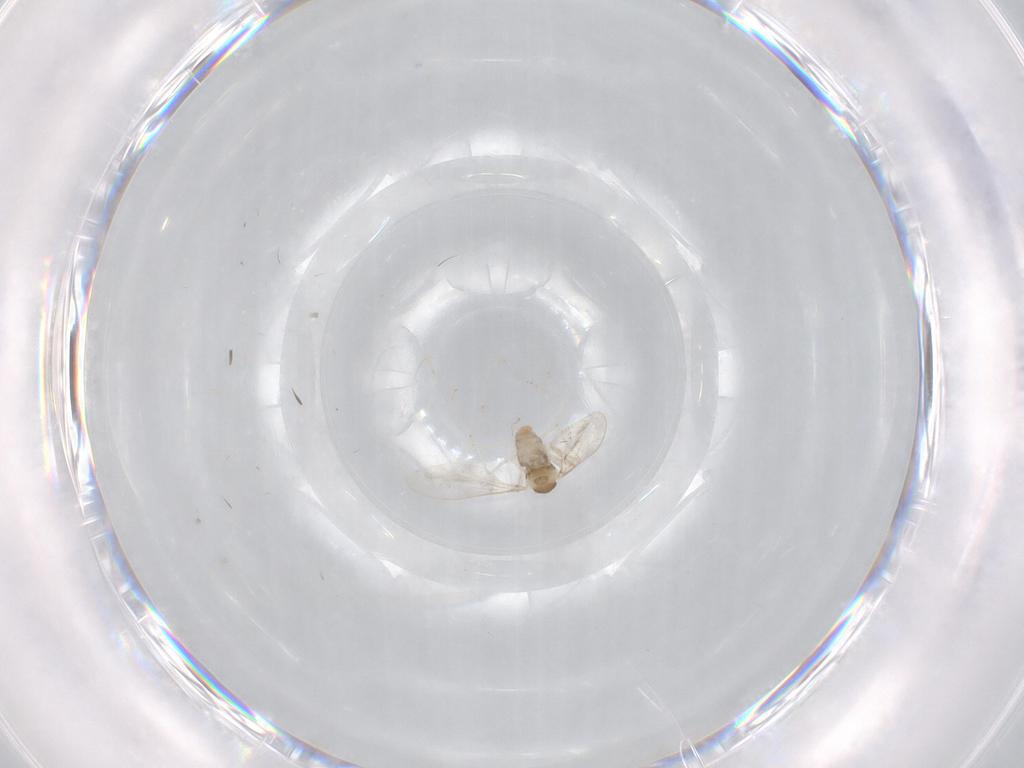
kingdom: Animalia
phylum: Arthropoda
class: Insecta
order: Diptera
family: Cecidomyiidae
